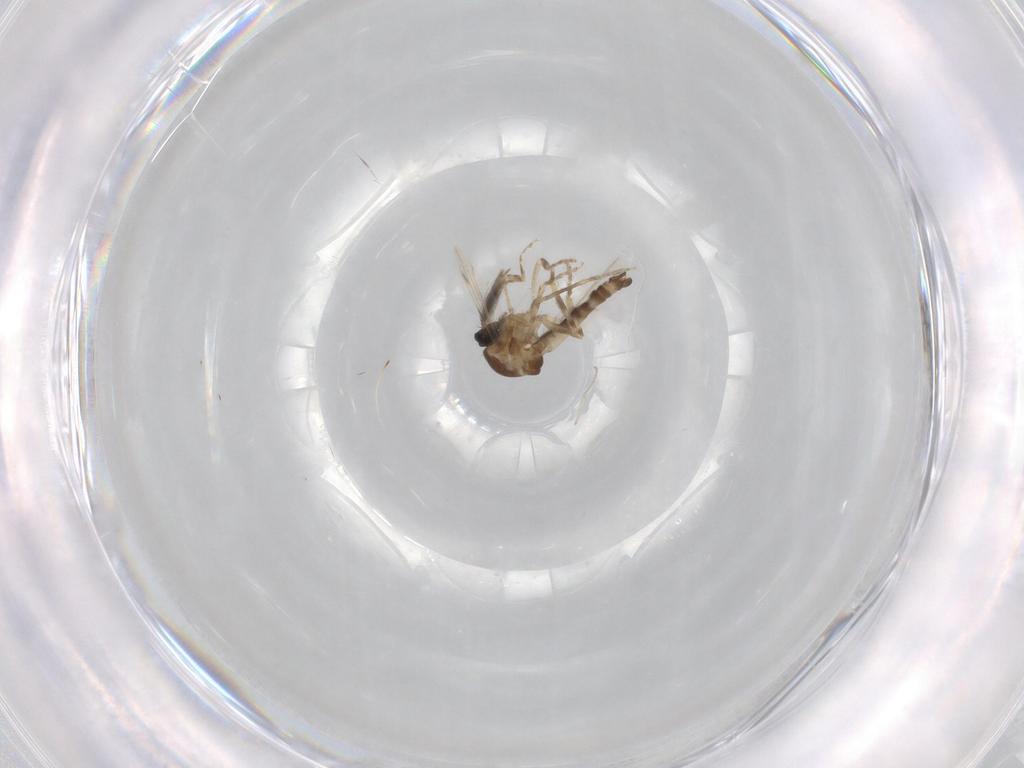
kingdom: Animalia
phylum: Arthropoda
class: Insecta
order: Diptera
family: Ceratopogonidae
